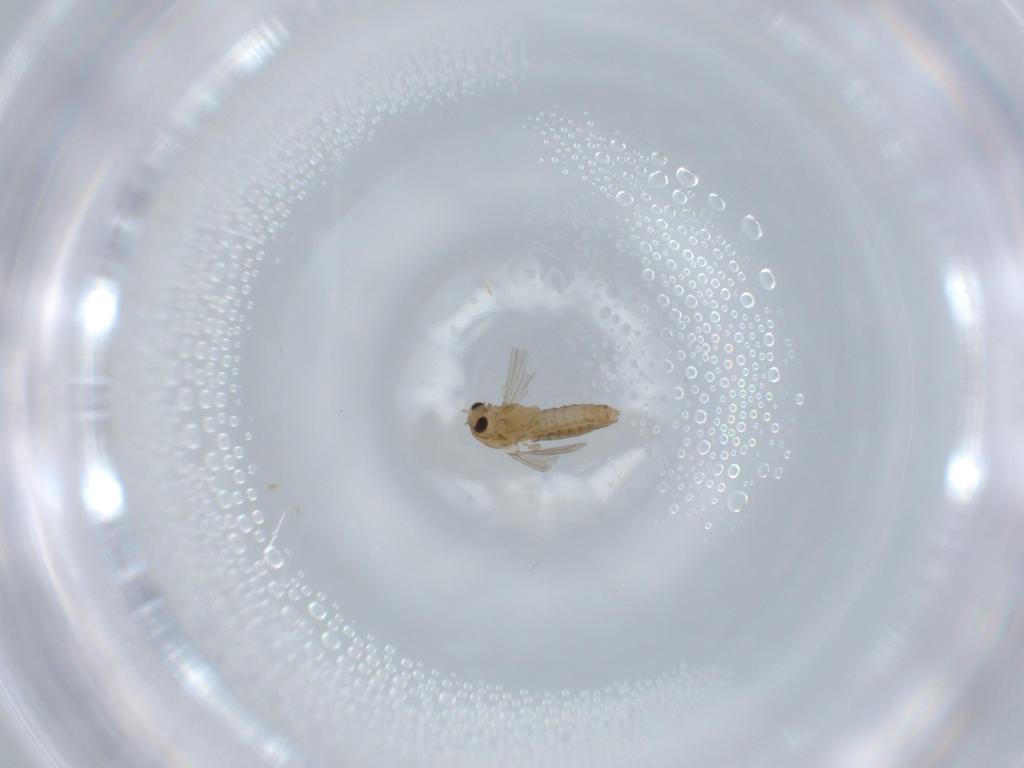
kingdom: Animalia
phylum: Arthropoda
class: Insecta
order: Diptera
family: Chironomidae
